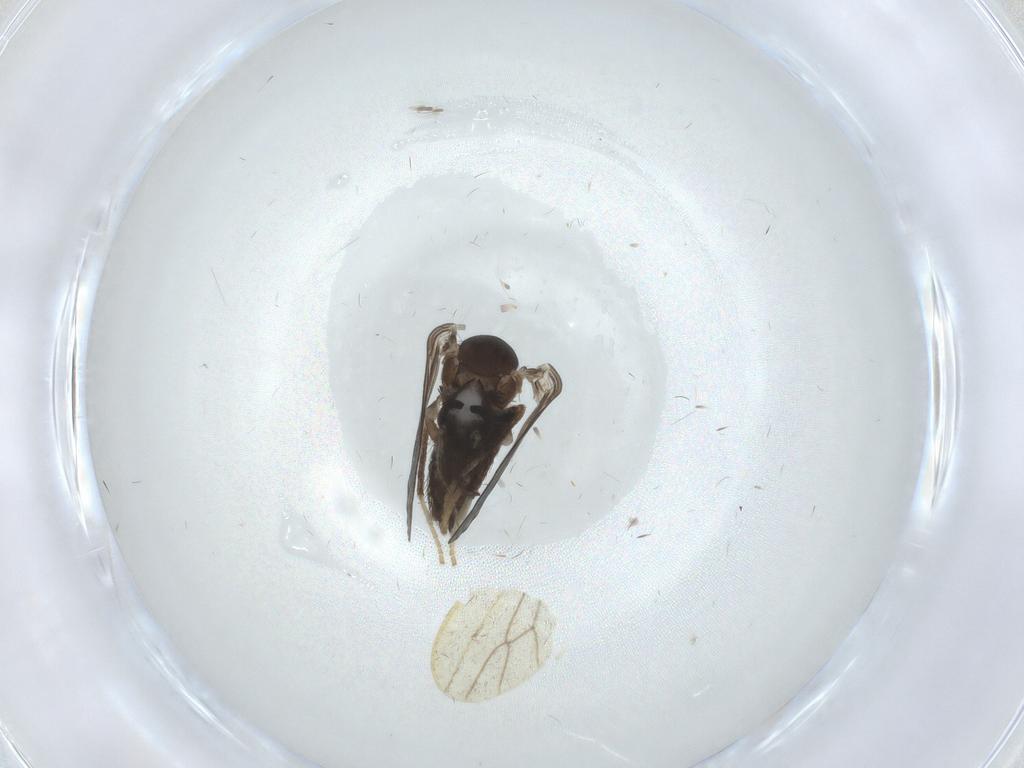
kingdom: Animalia
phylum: Arthropoda
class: Insecta
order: Diptera
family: Psychodidae
